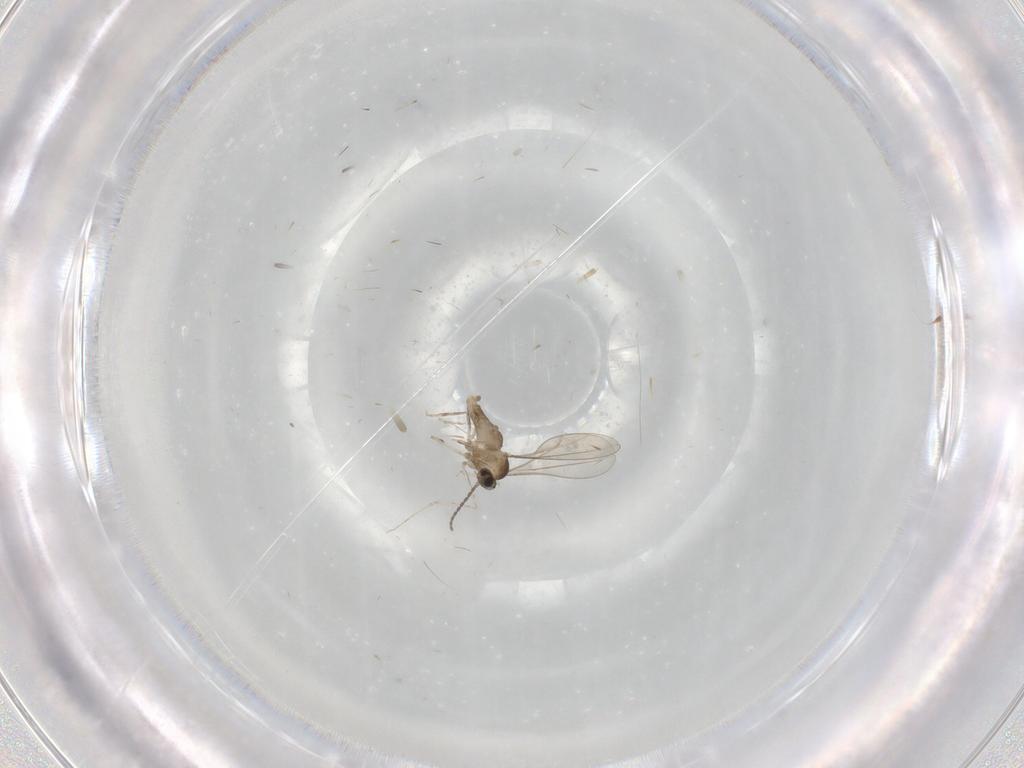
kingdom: Animalia
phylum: Arthropoda
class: Insecta
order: Diptera
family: Cecidomyiidae
